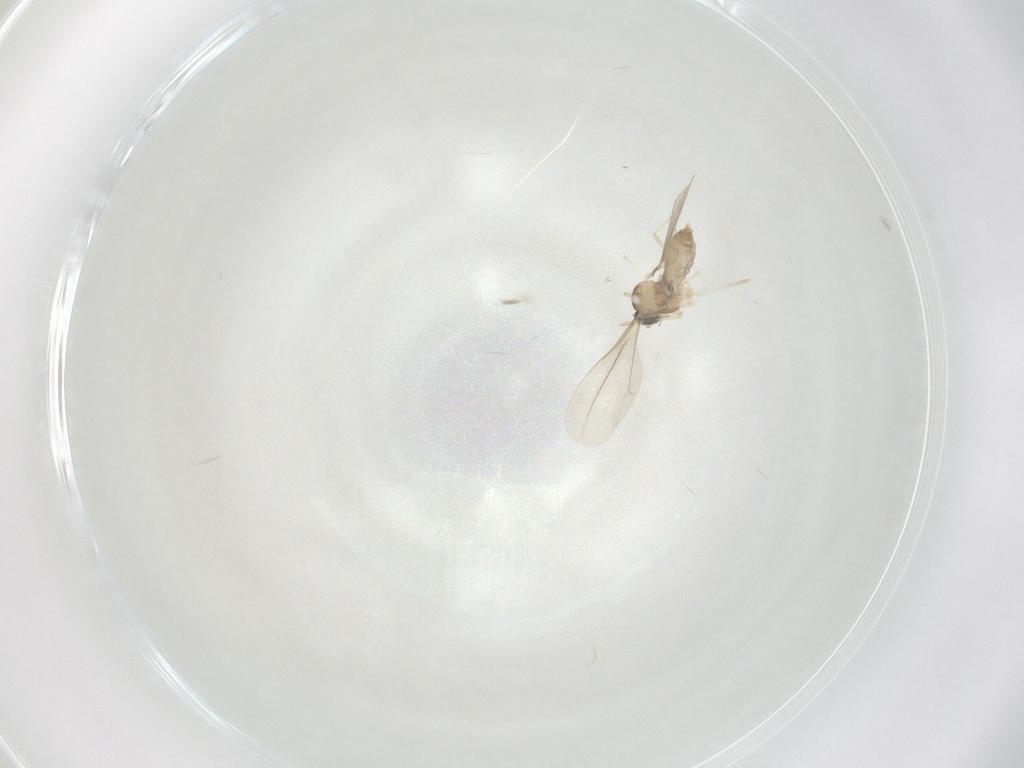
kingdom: Animalia
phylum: Arthropoda
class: Insecta
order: Diptera
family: Cecidomyiidae
